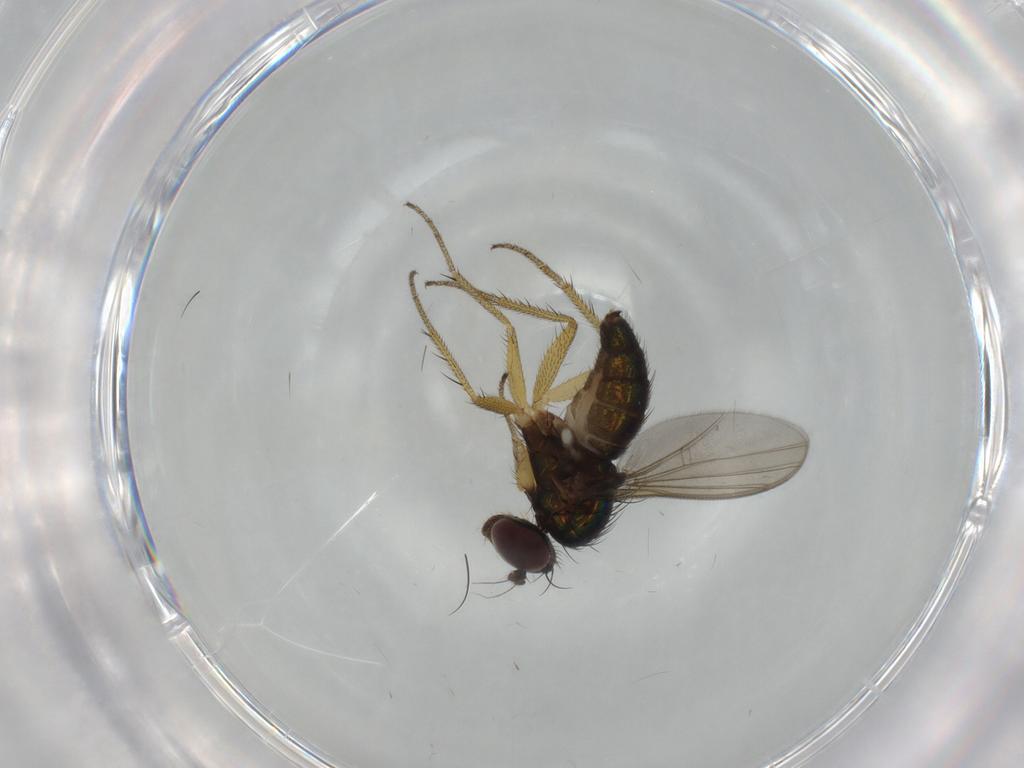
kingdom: Animalia
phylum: Arthropoda
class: Insecta
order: Diptera
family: Dolichopodidae
